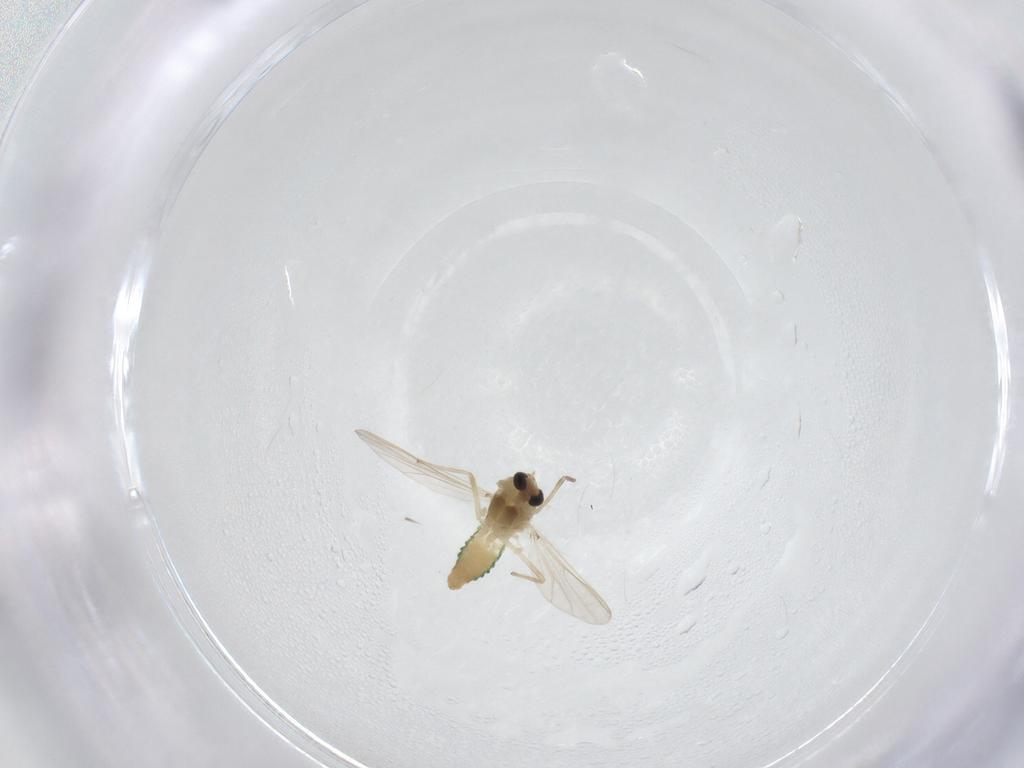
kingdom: Animalia
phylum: Arthropoda
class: Insecta
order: Diptera
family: Chironomidae
